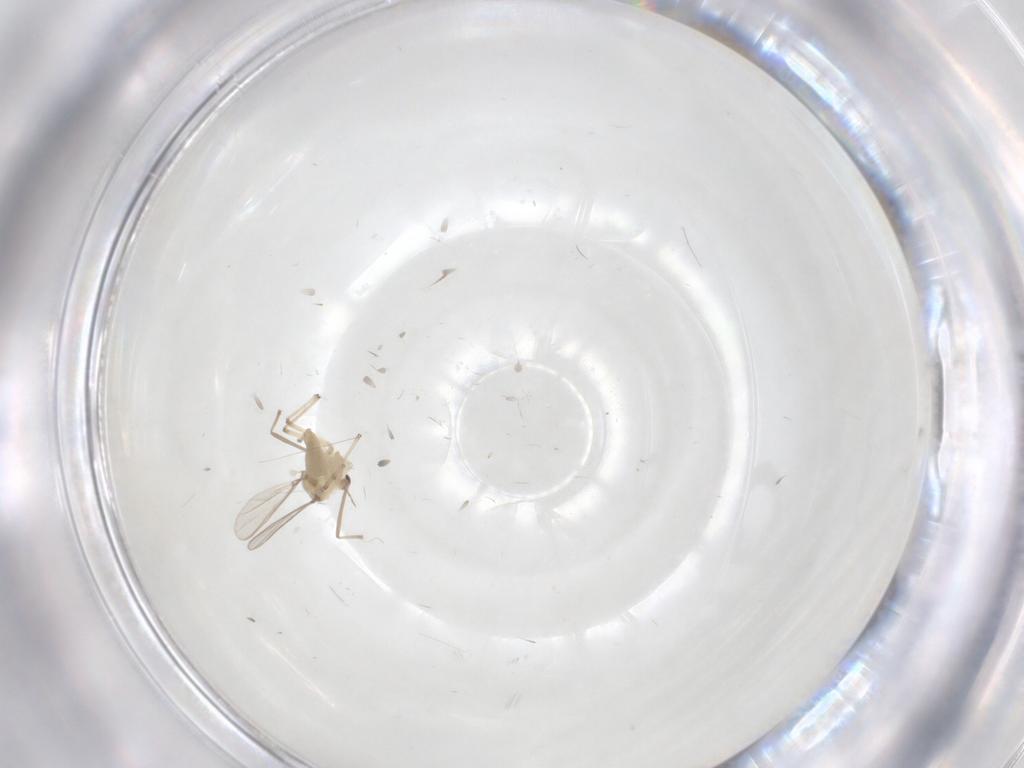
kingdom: Animalia
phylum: Arthropoda
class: Insecta
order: Diptera
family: Chironomidae
